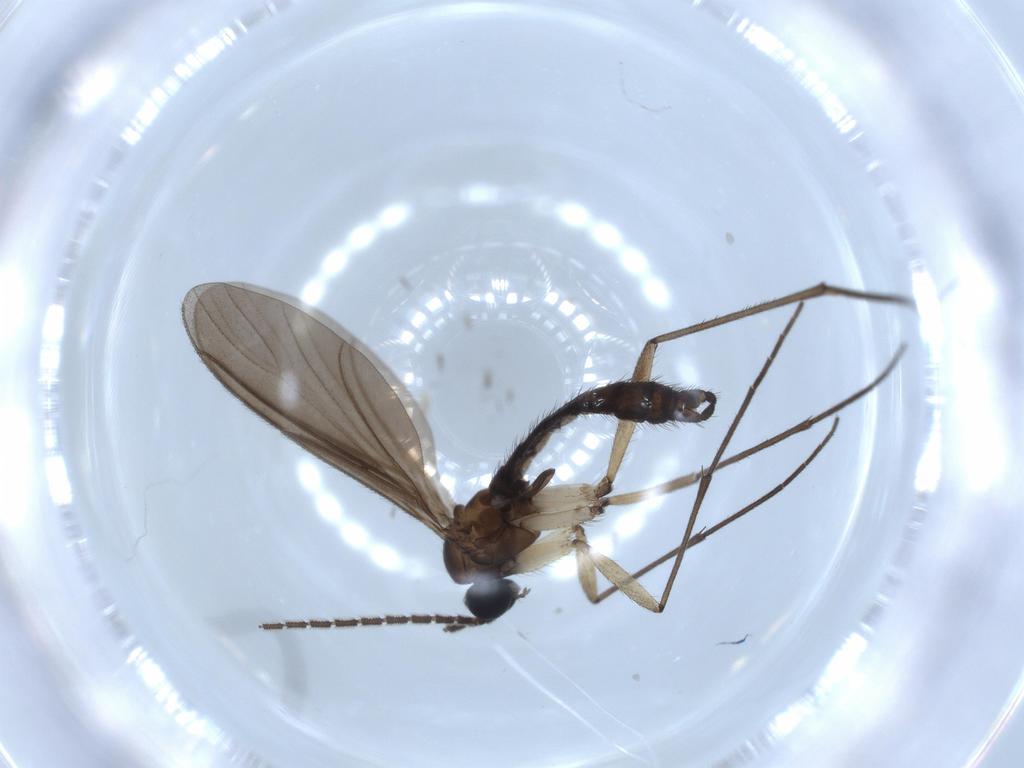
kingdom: Animalia
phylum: Arthropoda
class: Insecta
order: Diptera
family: Sciaridae
